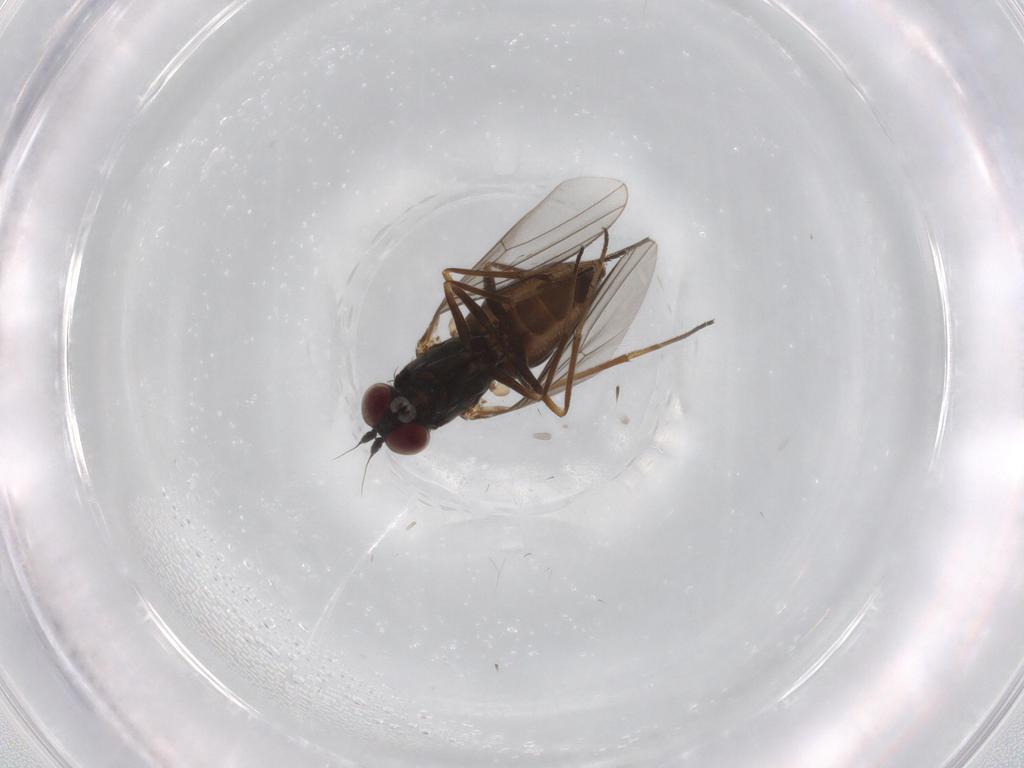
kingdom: Animalia
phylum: Arthropoda
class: Insecta
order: Diptera
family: Dolichopodidae
